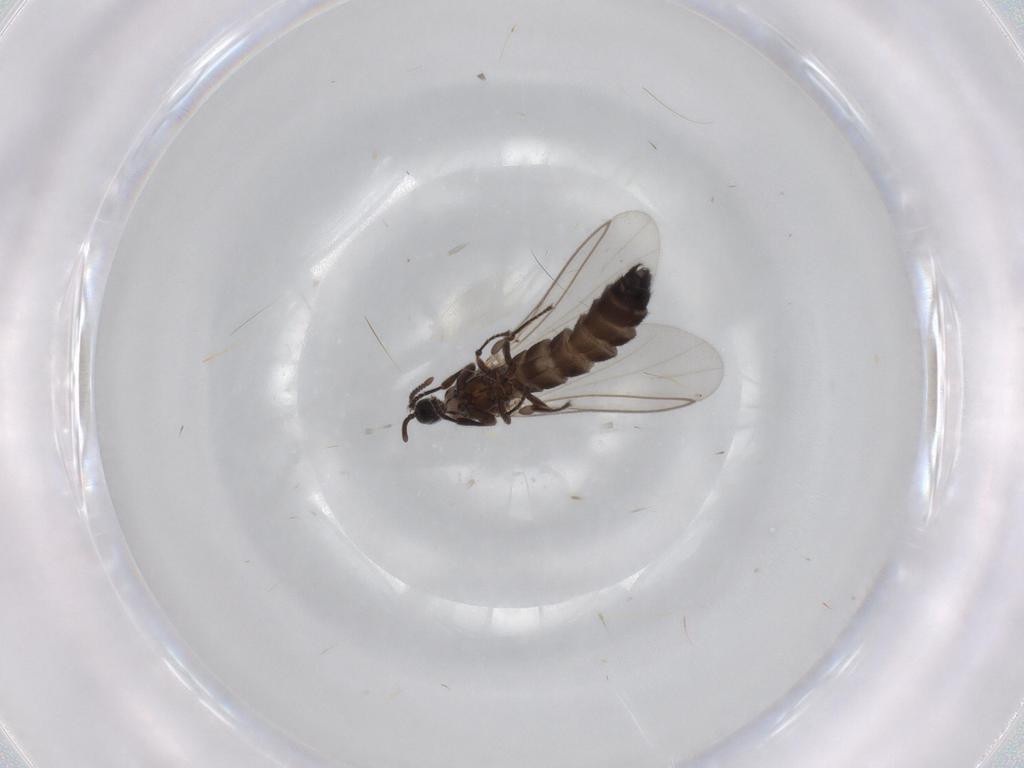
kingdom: Animalia
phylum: Arthropoda
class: Insecta
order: Diptera
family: Scatopsidae
